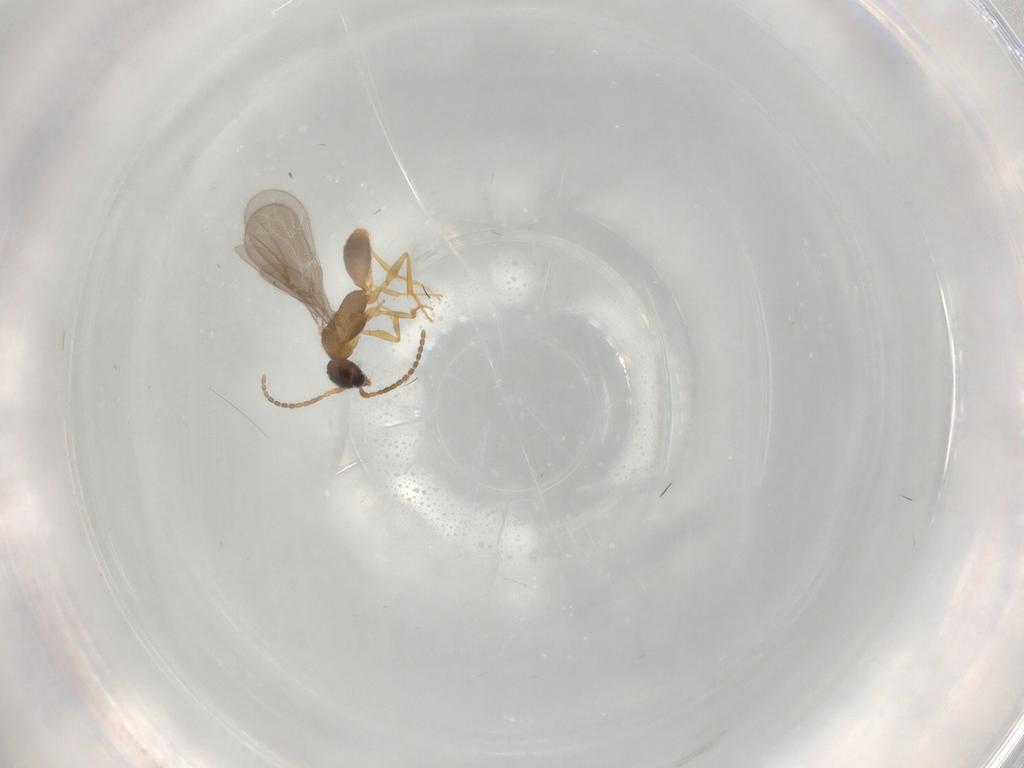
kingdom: Animalia
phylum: Arthropoda
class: Insecta
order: Hymenoptera
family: Bethylidae
